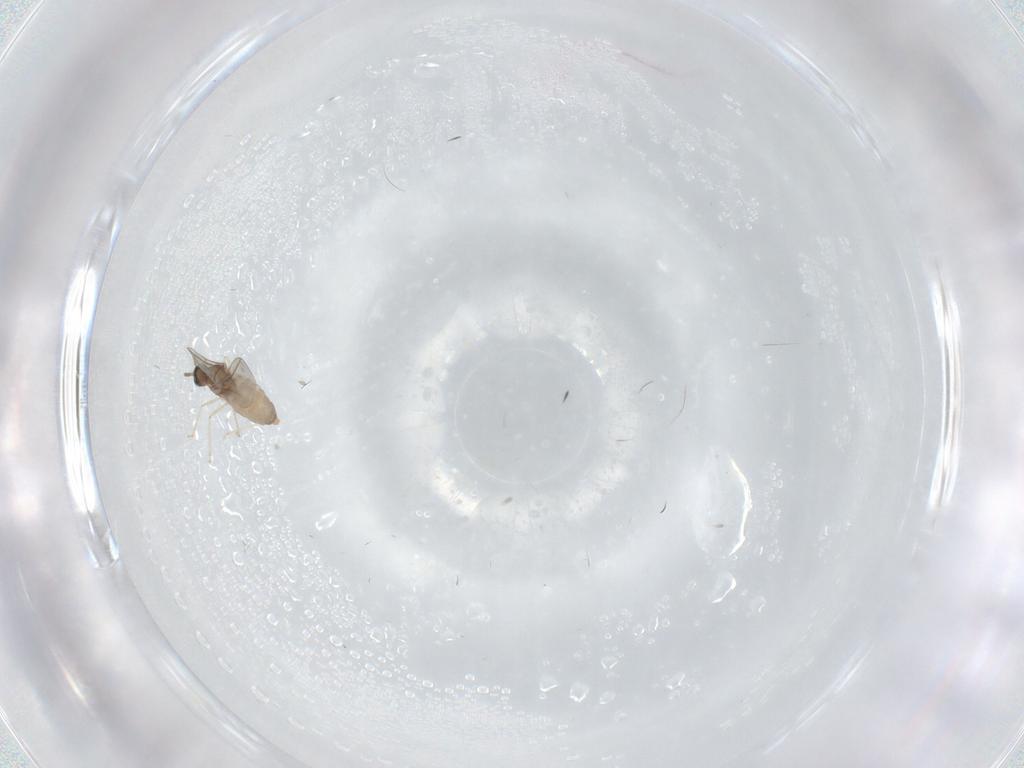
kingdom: Animalia
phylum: Arthropoda
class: Insecta
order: Diptera
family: Cecidomyiidae
